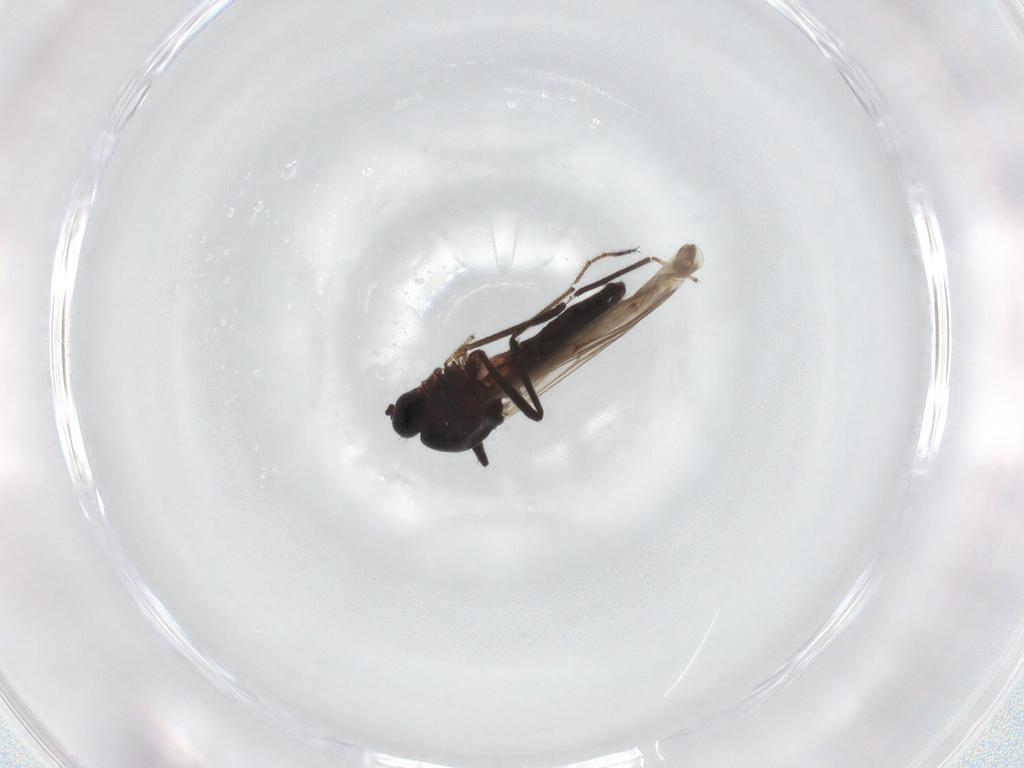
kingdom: Animalia
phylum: Arthropoda
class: Insecta
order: Diptera
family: Ceratopogonidae
